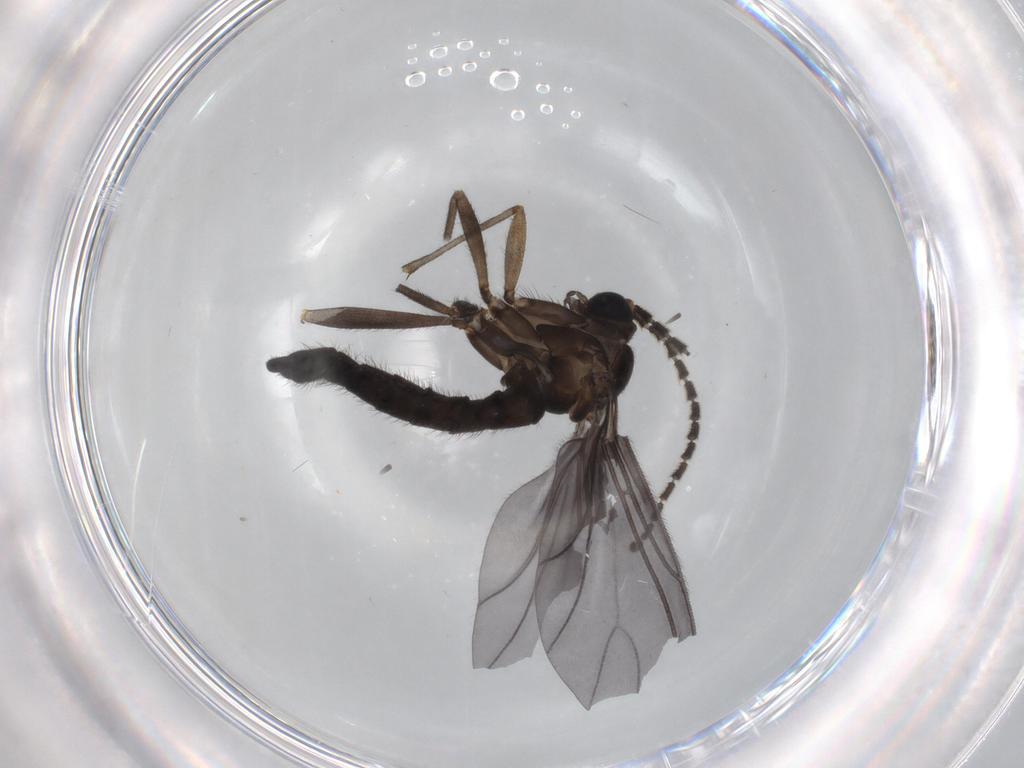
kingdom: Animalia
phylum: Arthropoda
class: Insecta
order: Diptera
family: Sciaridae
